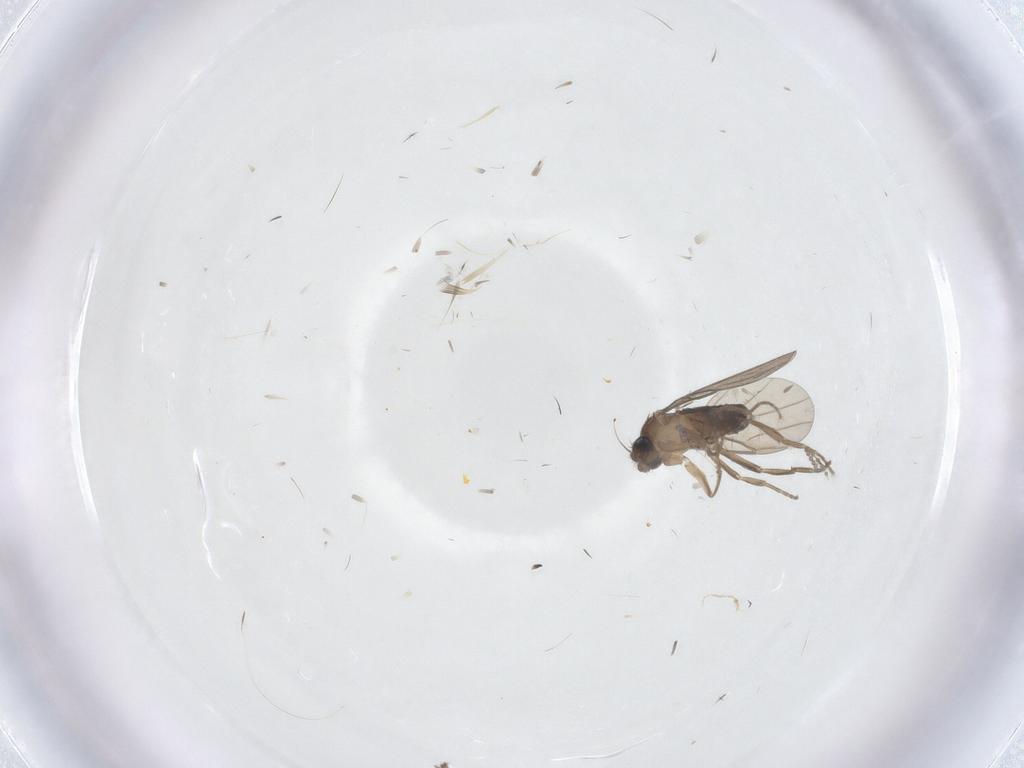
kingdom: Animalia
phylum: Arthropoda
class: Insecta
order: Diptera
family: Phoridae
